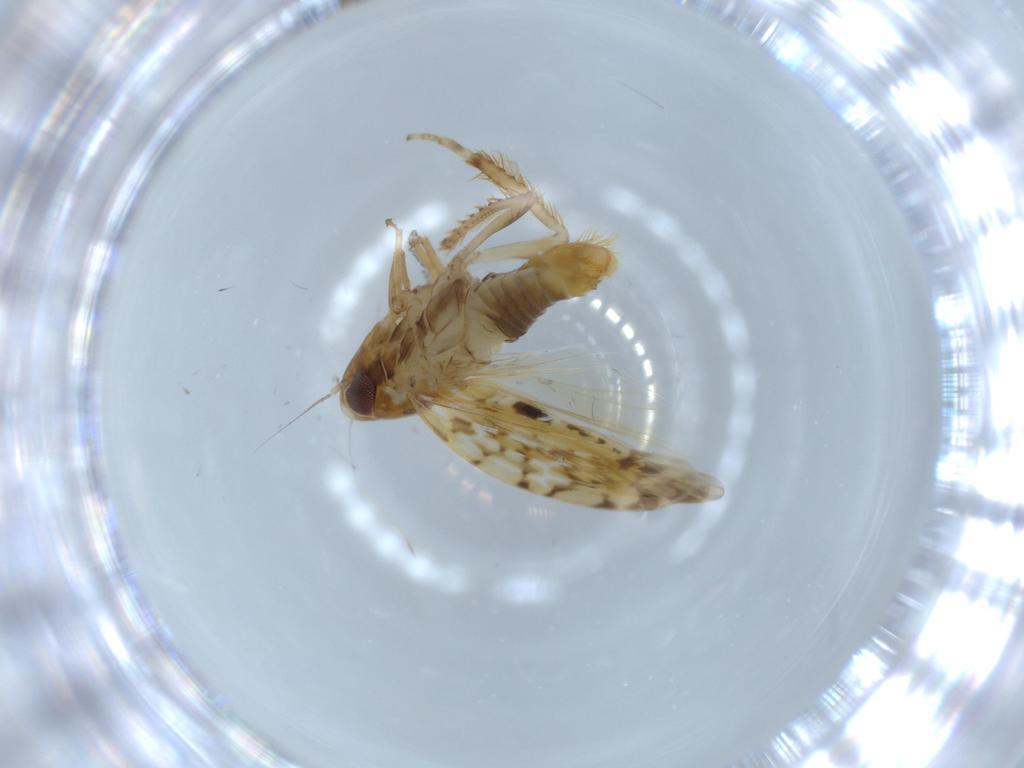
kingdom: Animalia
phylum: Arthropoda
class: Insecta
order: Hemiptera
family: Cicadellidae
